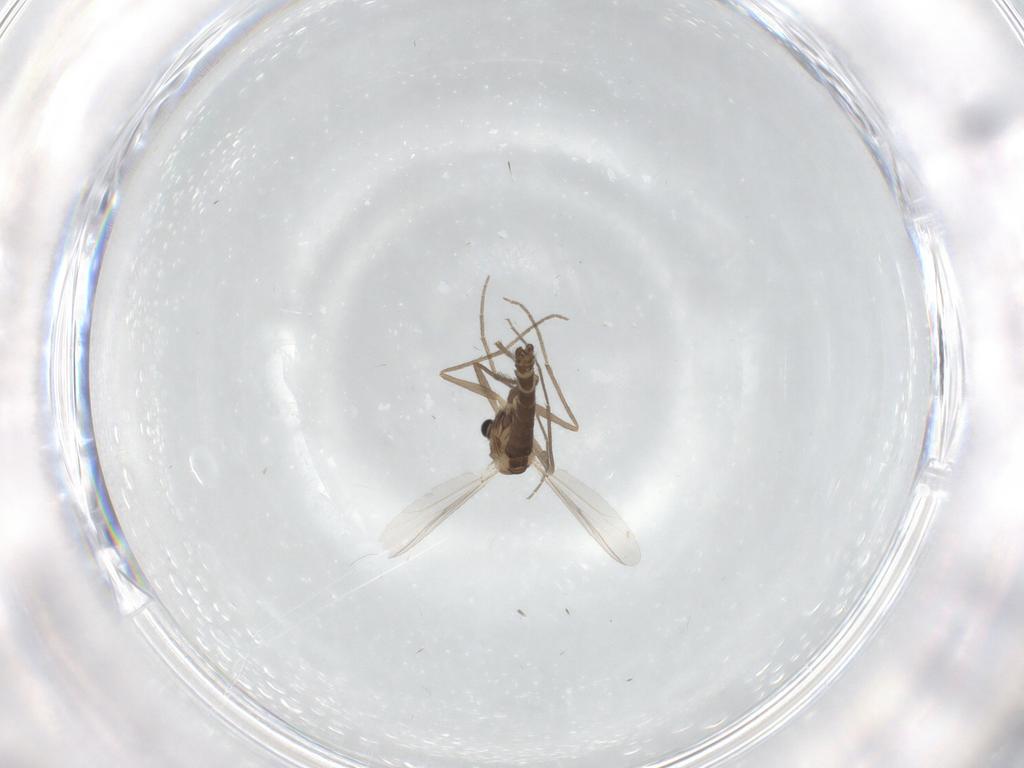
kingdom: Animalia
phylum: Arthropoda
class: Insecta
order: Diptera
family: Chironomidae
